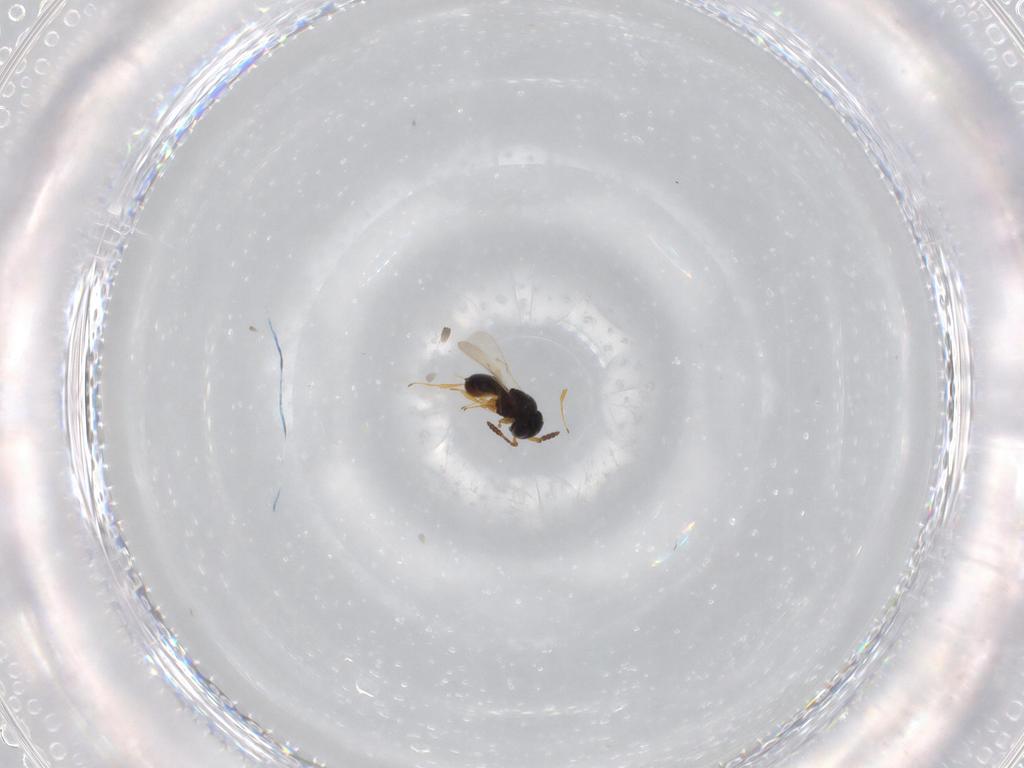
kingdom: Animalia
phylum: Arthropoda
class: Insecta
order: Hymenoptera
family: Scelionidae
